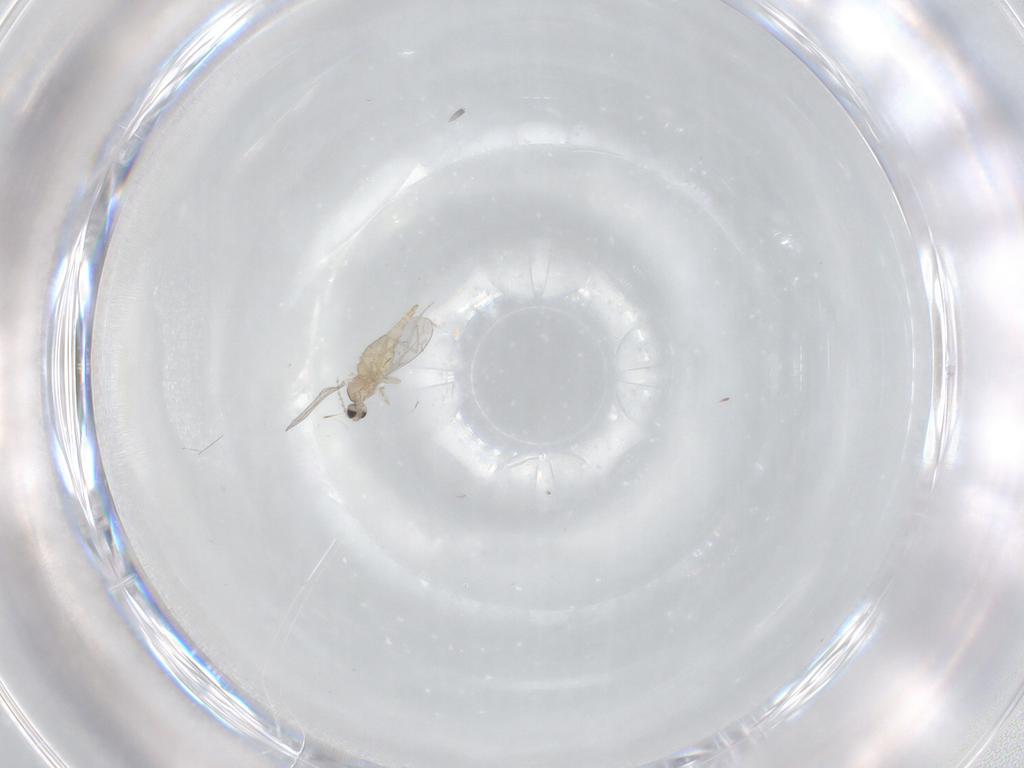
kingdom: Animalia
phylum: Arthropoda
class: Insecta
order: Diptera
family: Cecidomyiidae
